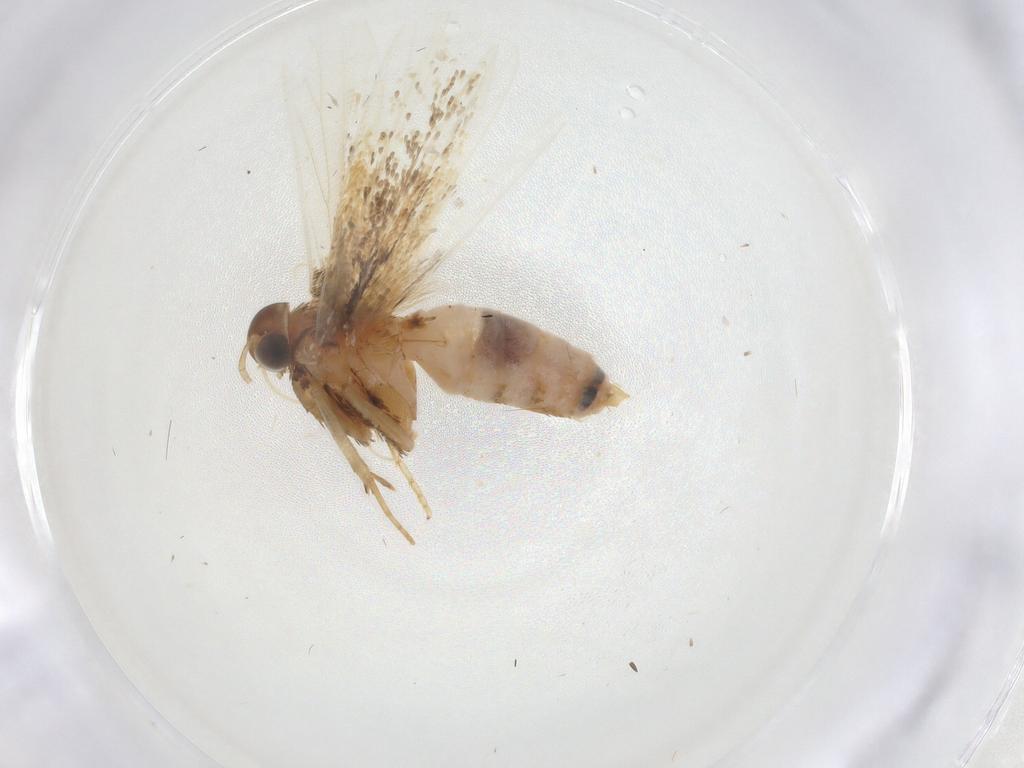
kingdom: Animalia
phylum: Arthropoda
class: Insecta
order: Lepidoptera
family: Gelechiidae
